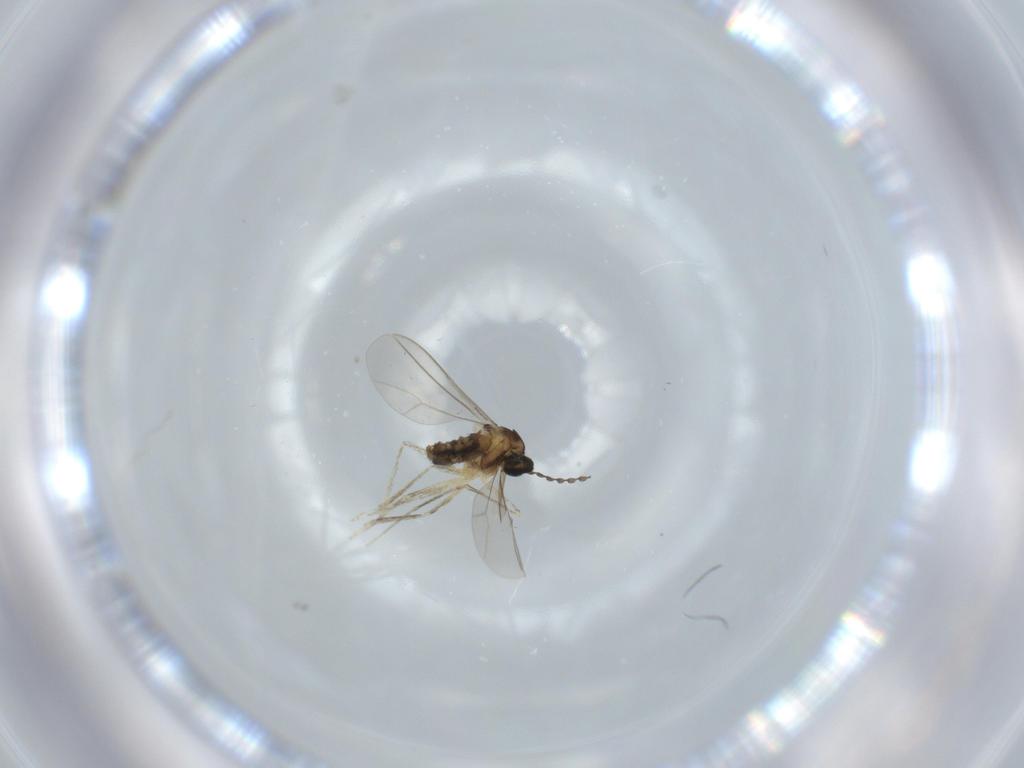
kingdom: Animalia
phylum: Arthropoda
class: Insecta
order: Diptera
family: Cecidomyiidae
